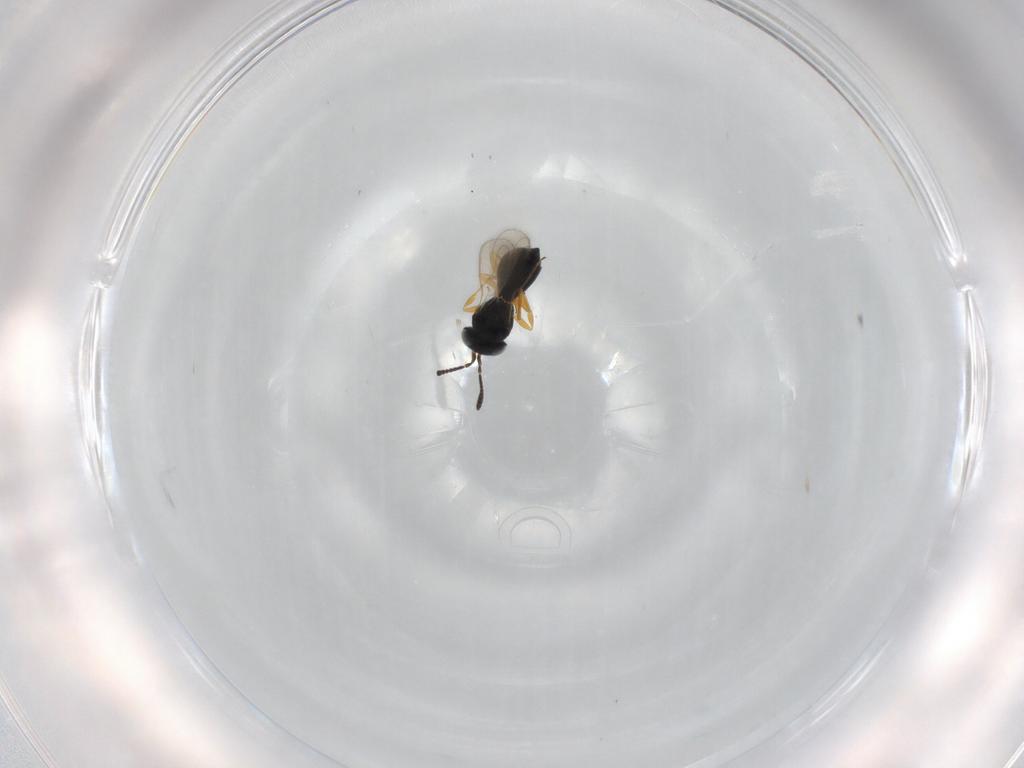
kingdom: Animalia
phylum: Arthropoda
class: Insecta
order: Hymenoptera
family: Scelionidae
